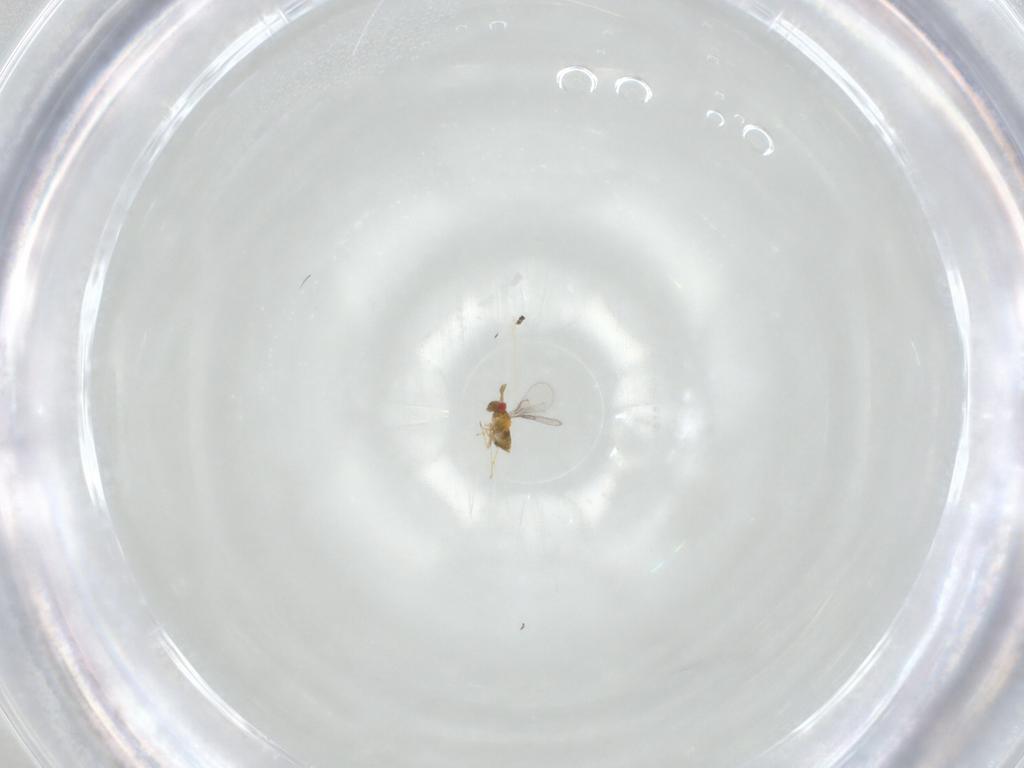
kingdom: Animalia
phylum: Arthropoda
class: Insecta
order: Hymenoptera
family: Trichogrammatidae
